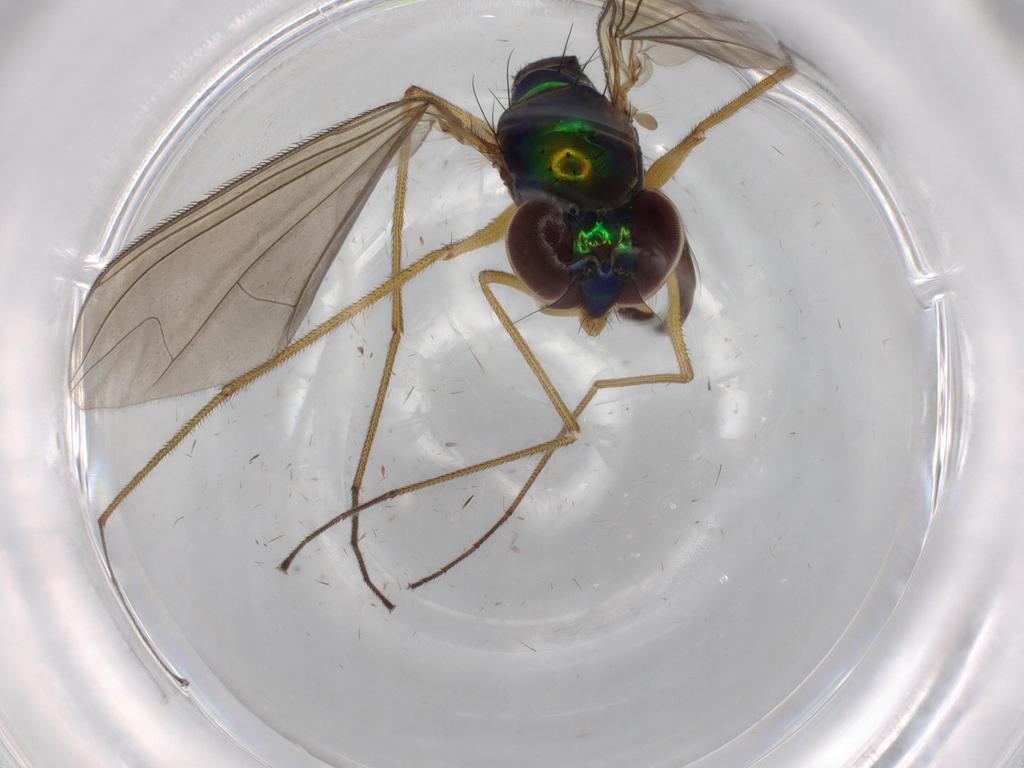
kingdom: Animalia
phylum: Arthropoda
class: Insecta
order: Diptera
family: Dolichopodidae
